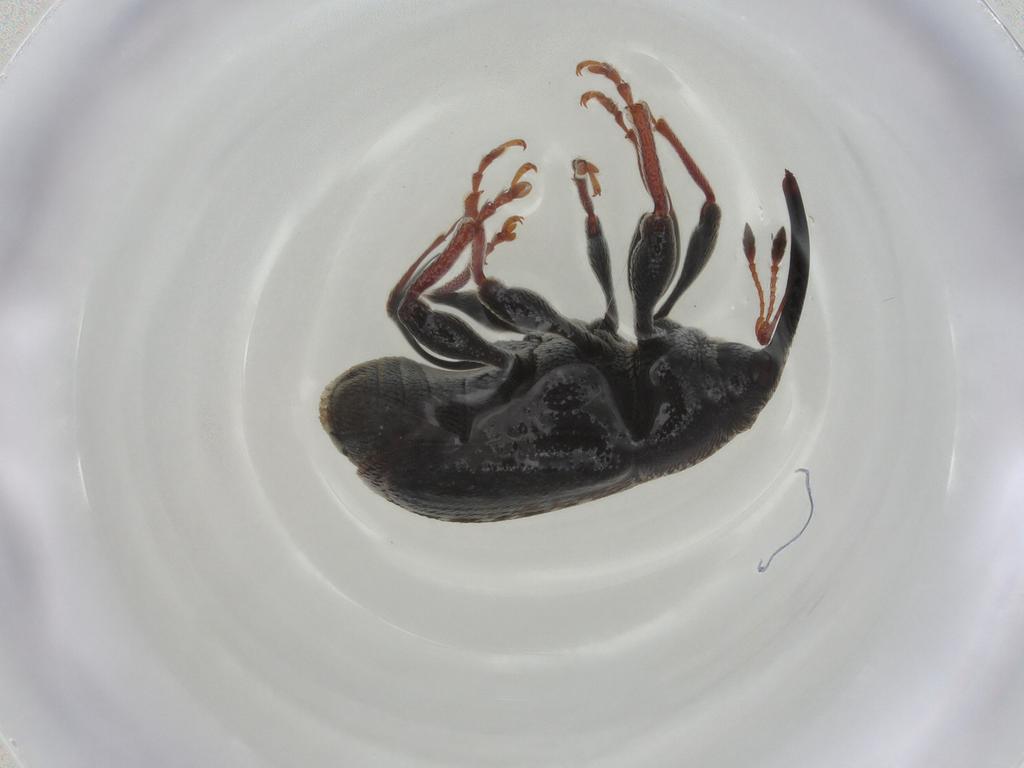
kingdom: Animalia
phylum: Arthropoda
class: Insecta
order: Coleoptera
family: Curculionidae
